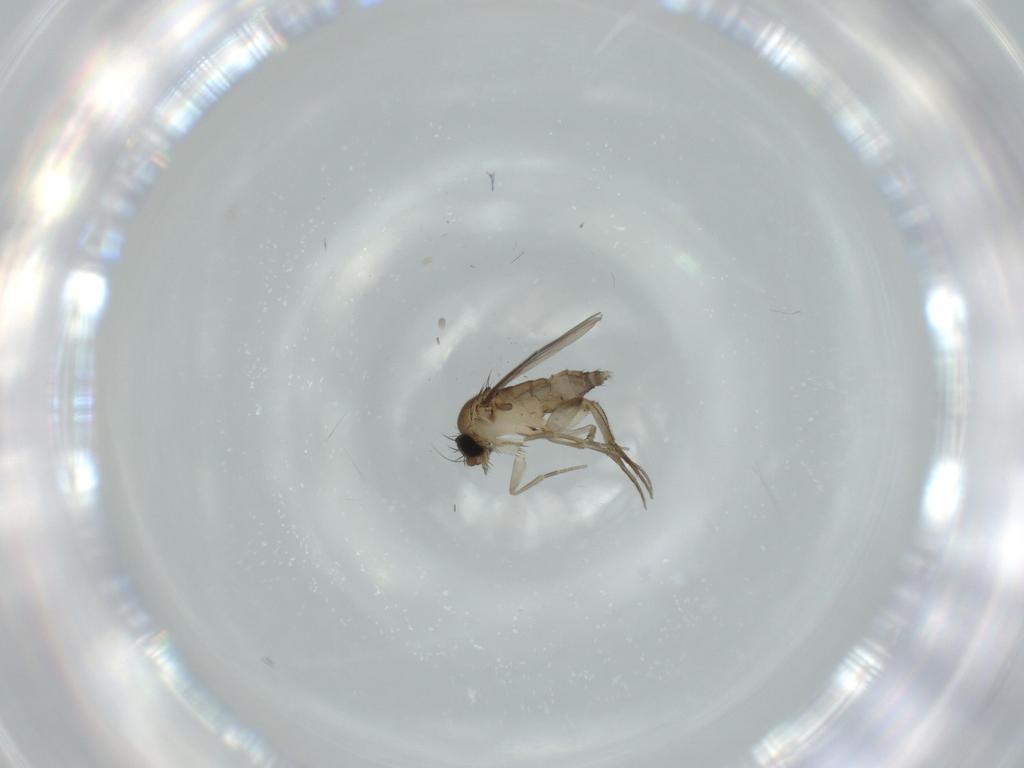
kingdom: Animalia
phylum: Arthropoda
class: Insecta
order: Diptera
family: Phoridae
